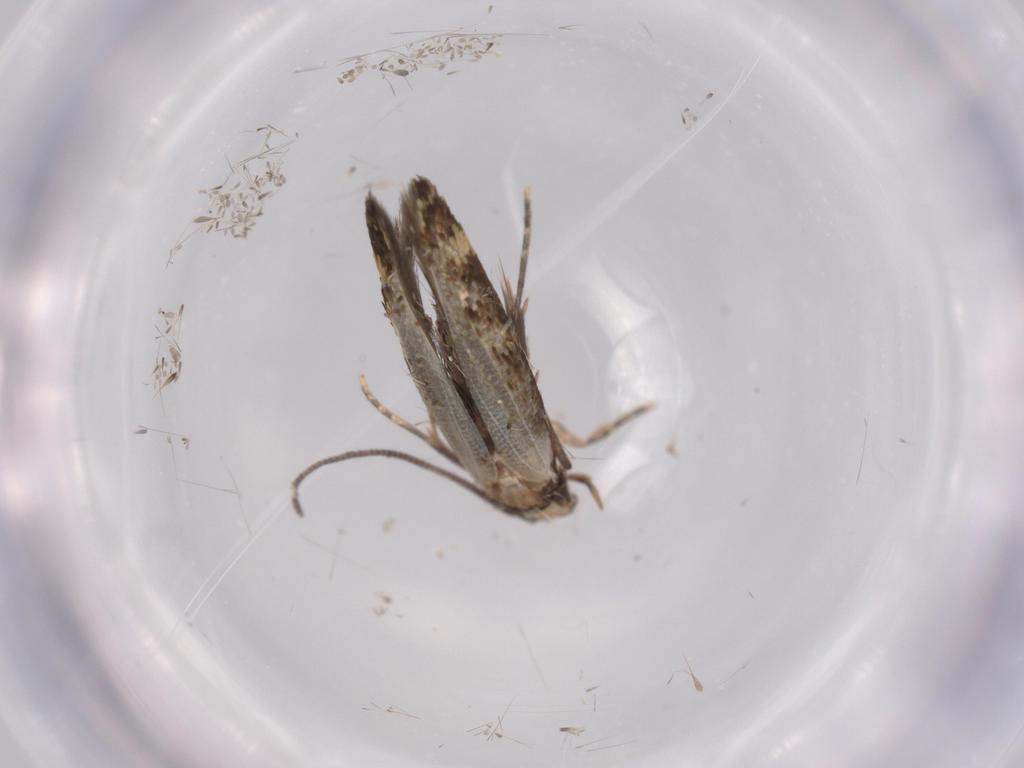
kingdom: Animalia
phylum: Arthropoda
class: Insecta
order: Lepidoptera
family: Tineidae
